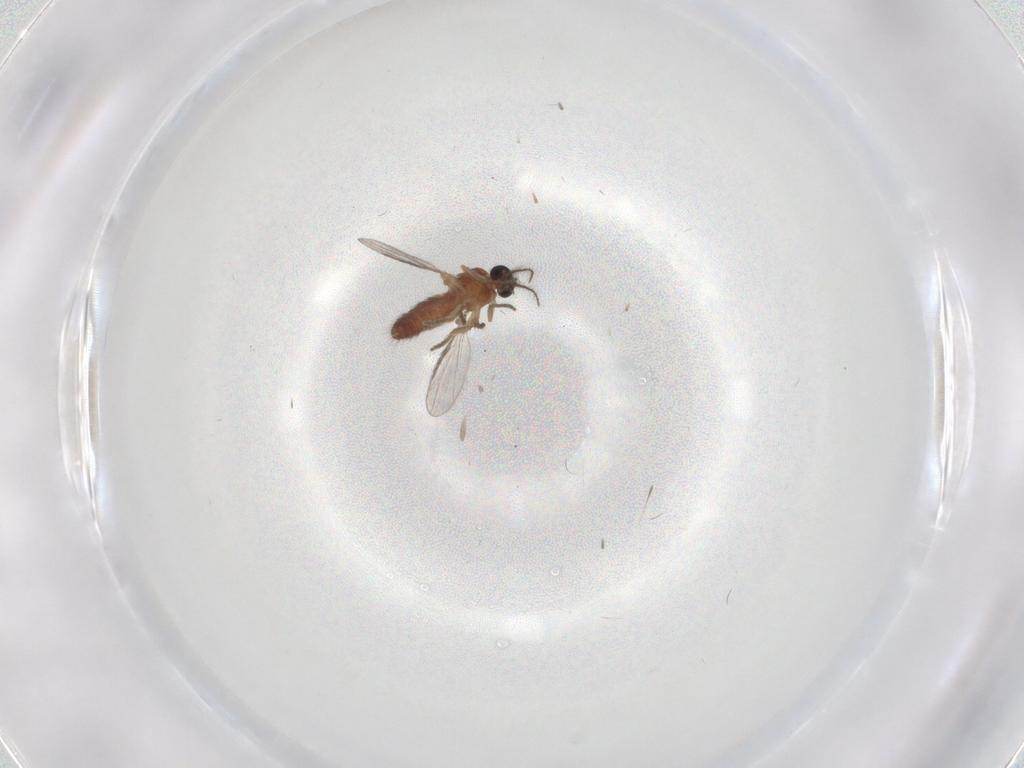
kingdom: Animalia
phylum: Arthropoda
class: Insecta
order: Diptera
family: Ceratopogonidae
